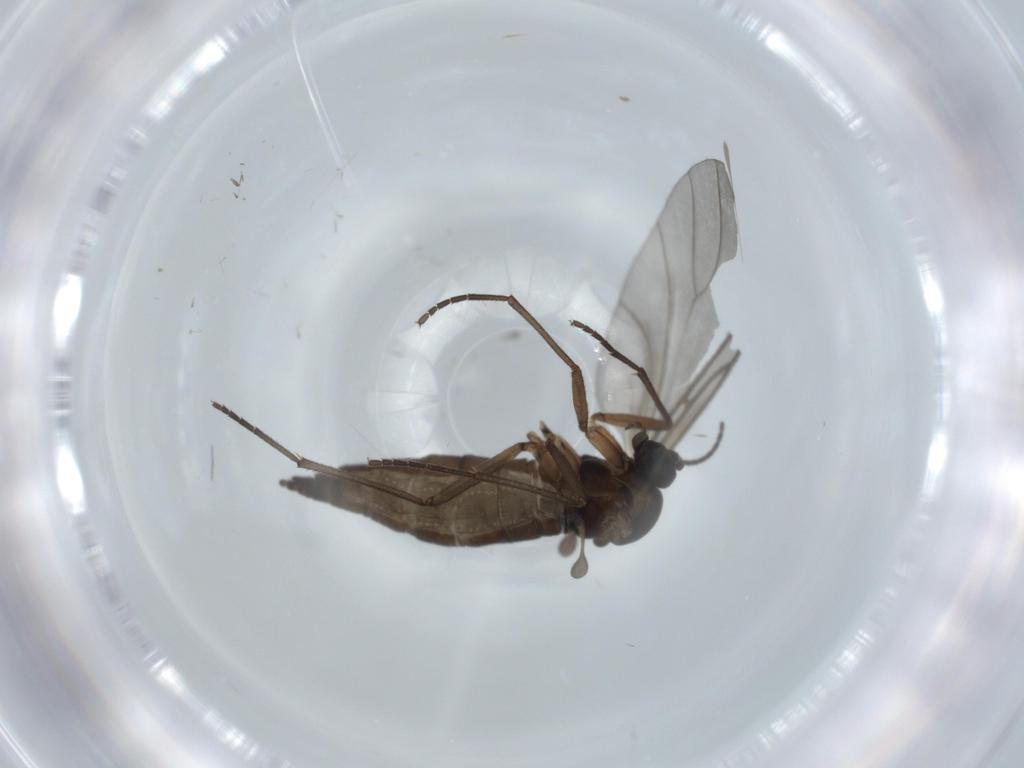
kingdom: Animalia
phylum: Arthropoda
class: Insecta
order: Diptera
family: Sciaridae
